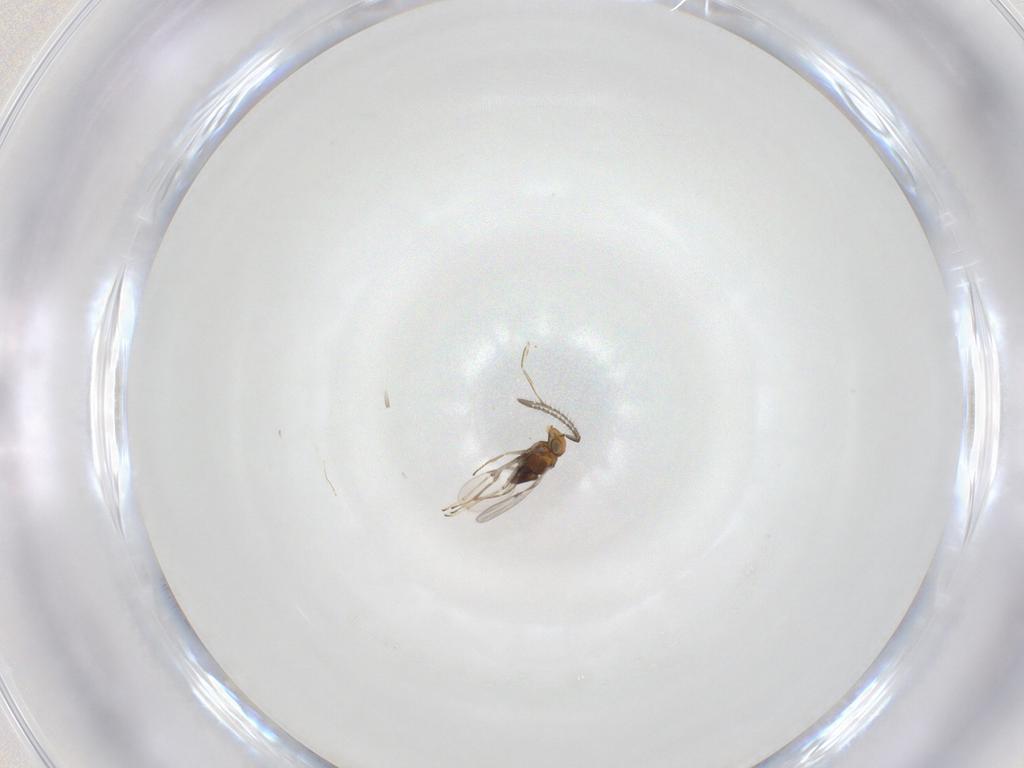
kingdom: Animalia
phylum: Arthropoda
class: Insecta
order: Hymenoptera
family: Encyrtidae
